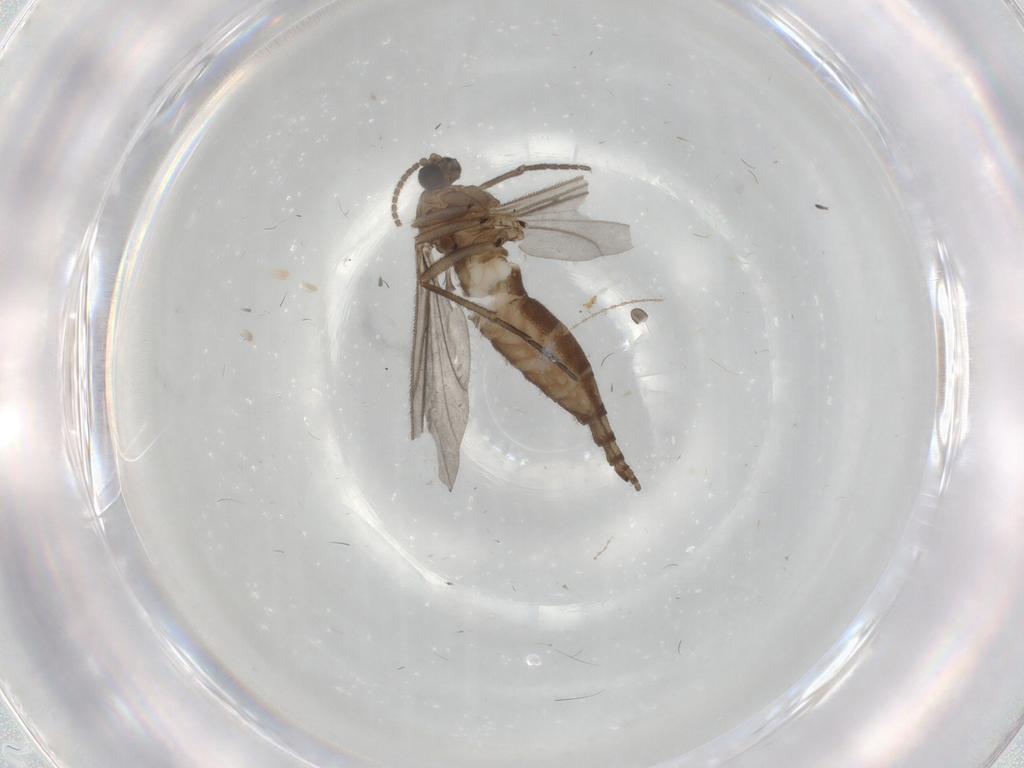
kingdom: Animalia
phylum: Arthropoda
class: Insecta
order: Diptera
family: Sciaridae
